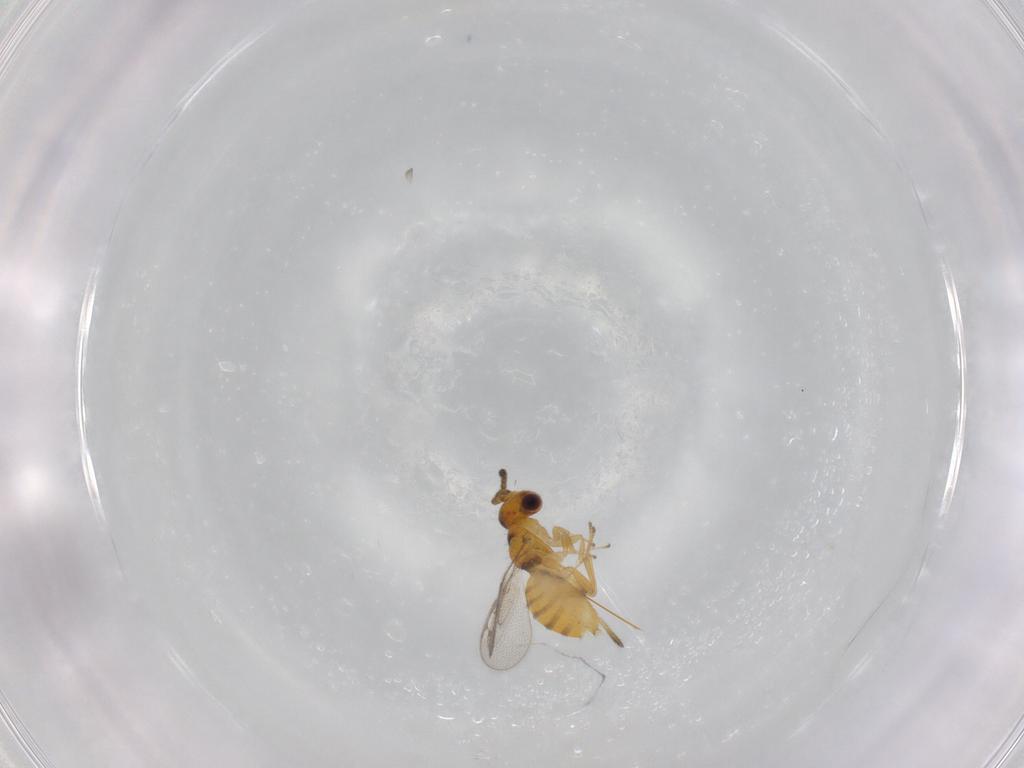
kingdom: Animalia
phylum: Arthropoda
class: Insecta
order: Hymenoptera
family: Pirenidae
